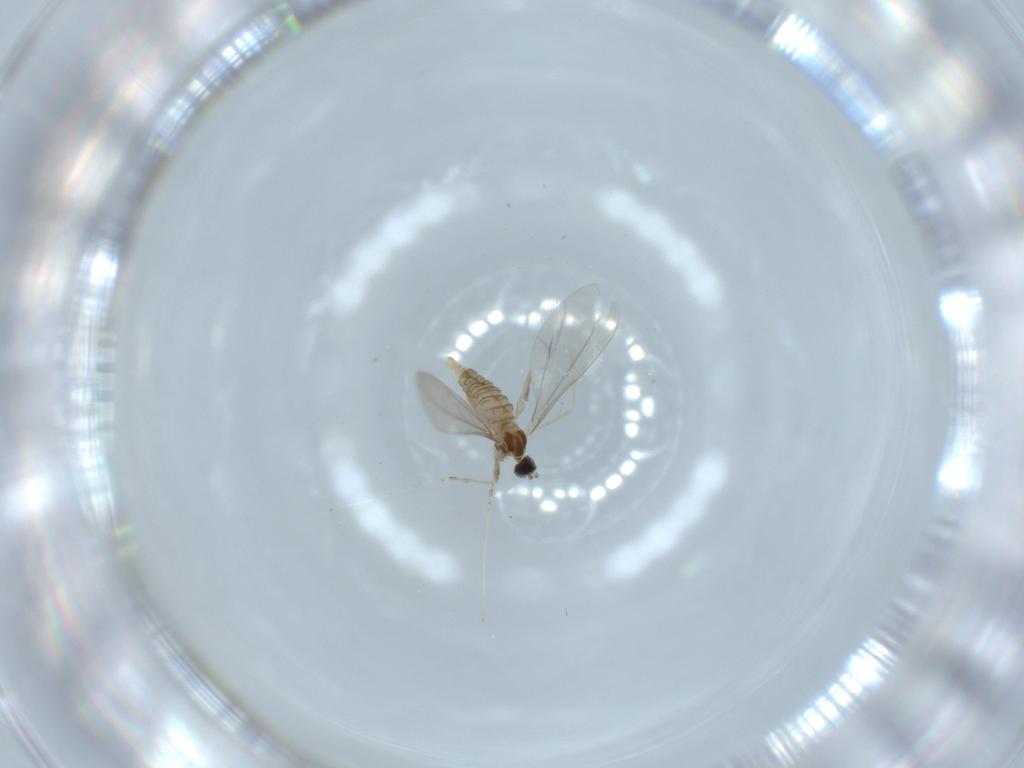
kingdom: Animalia
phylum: Arthropoda
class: Insecta
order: Diptera
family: Cecidomyiidae
